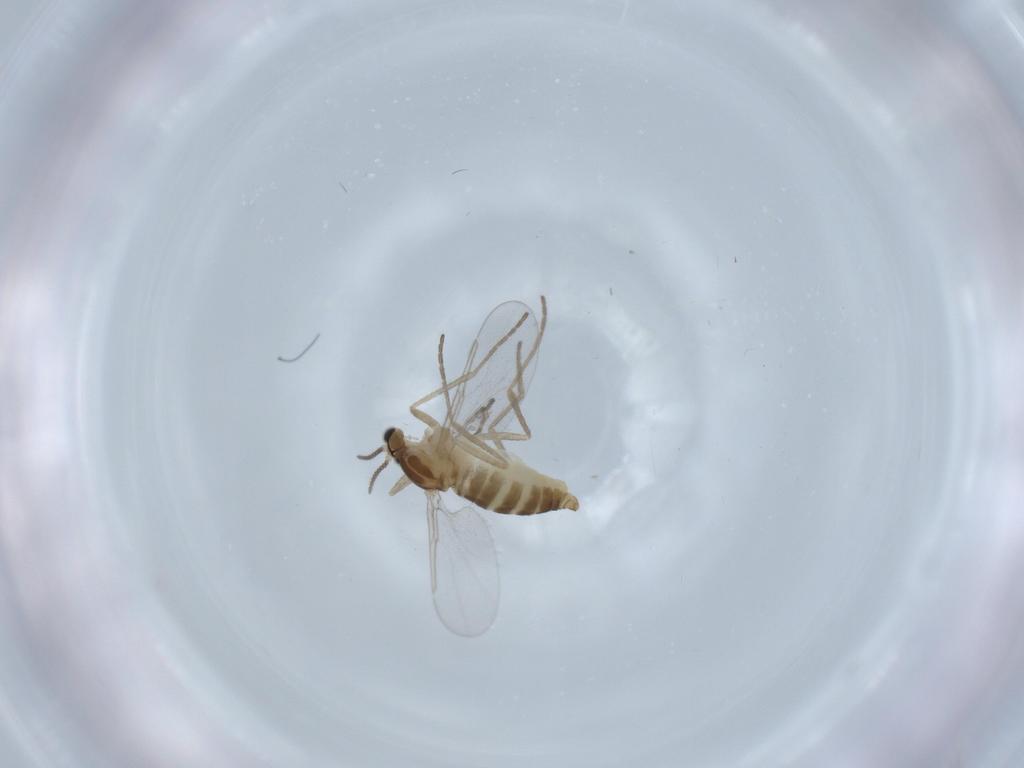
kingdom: Animalia
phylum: Arthropoda
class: Insecta
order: Diptera
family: Cecidomyiidae
